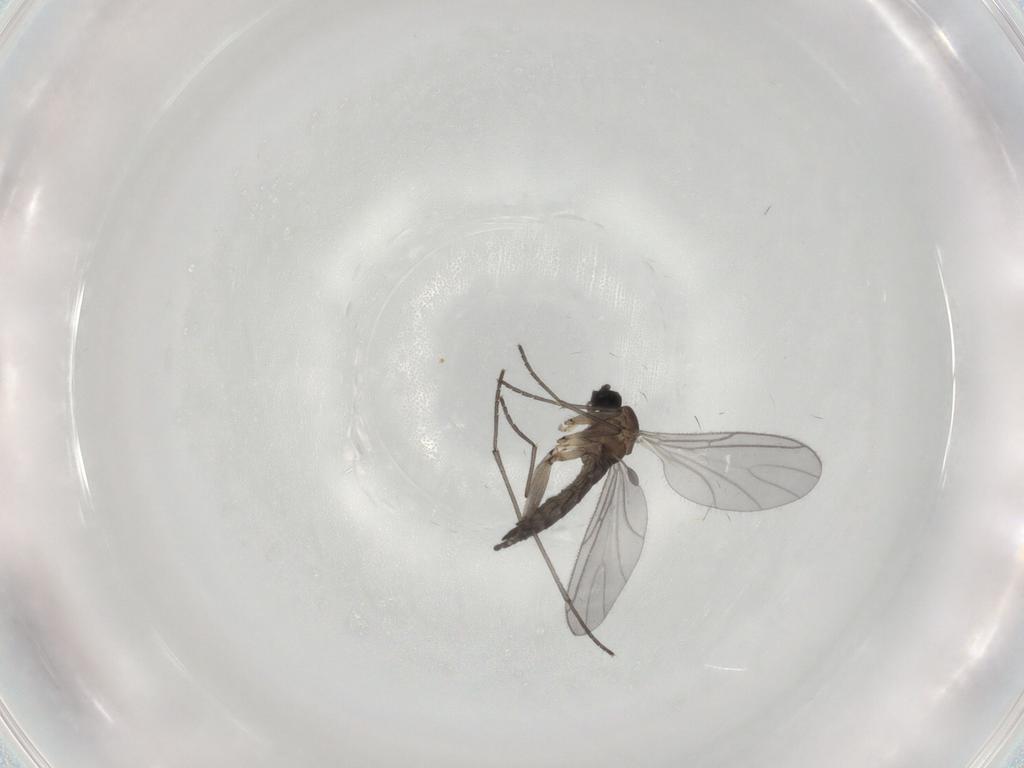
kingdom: Animalia
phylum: Arthropoda
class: Insecta
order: Diptera
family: Sciaridae
